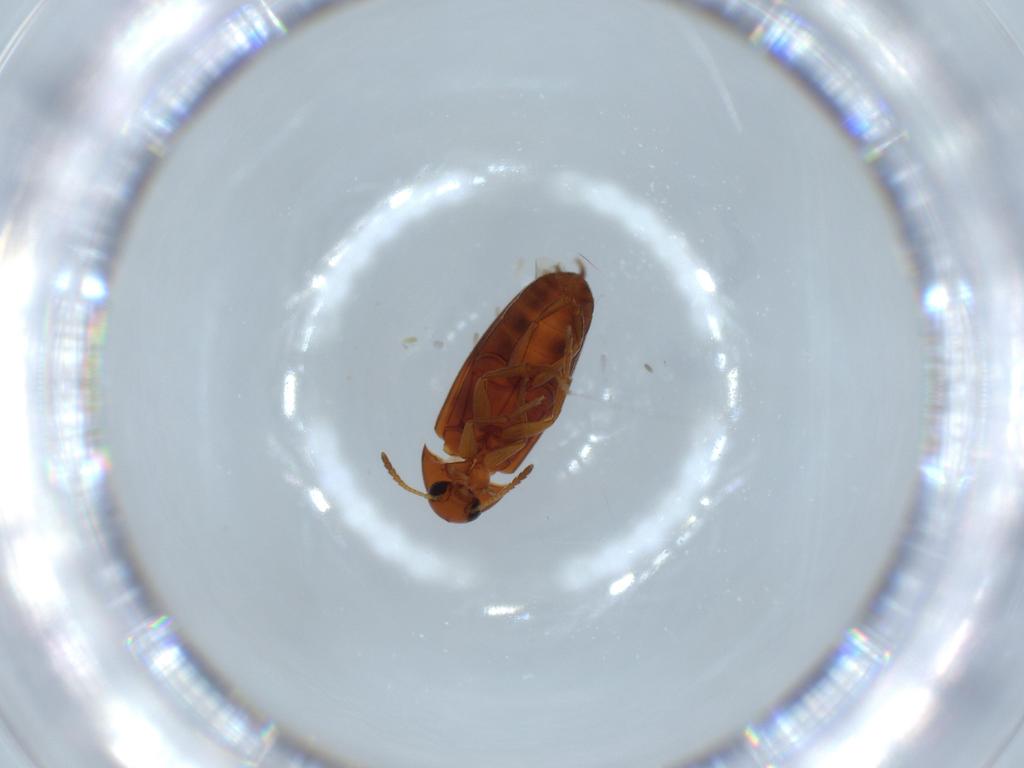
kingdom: Animalia
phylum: Arthropoda
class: Insecta
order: Coleoptera
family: Scraptiidae
